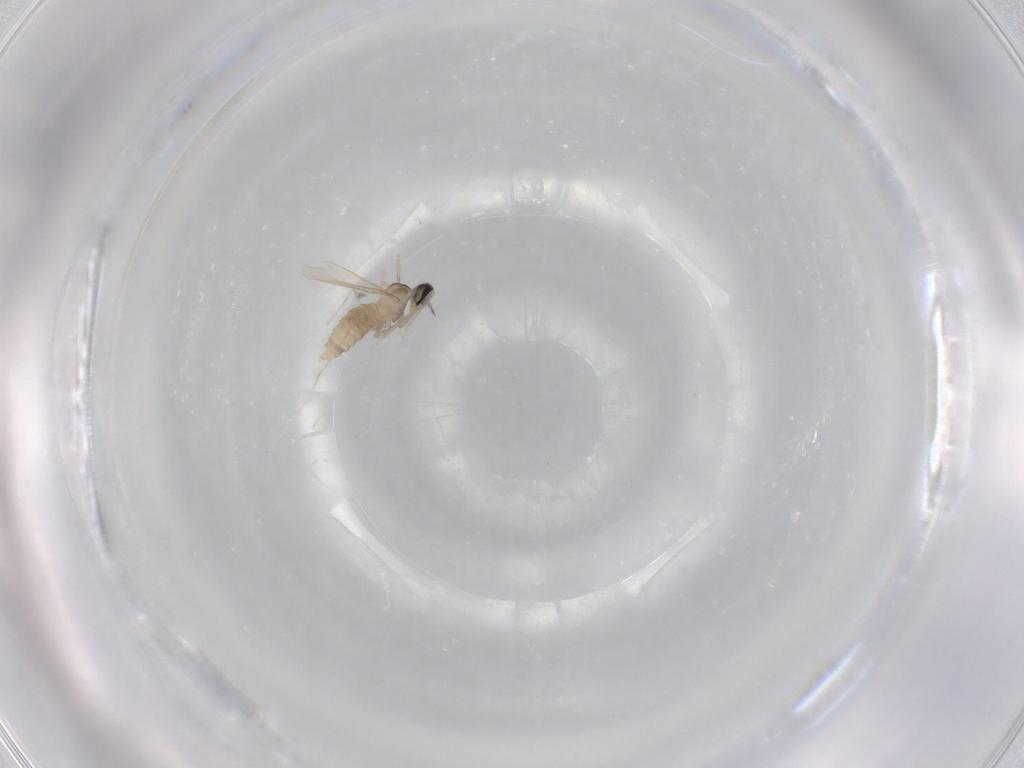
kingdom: Animalia
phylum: Arthropoda
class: Insecta
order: Diptera
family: Cecidomyiidae
